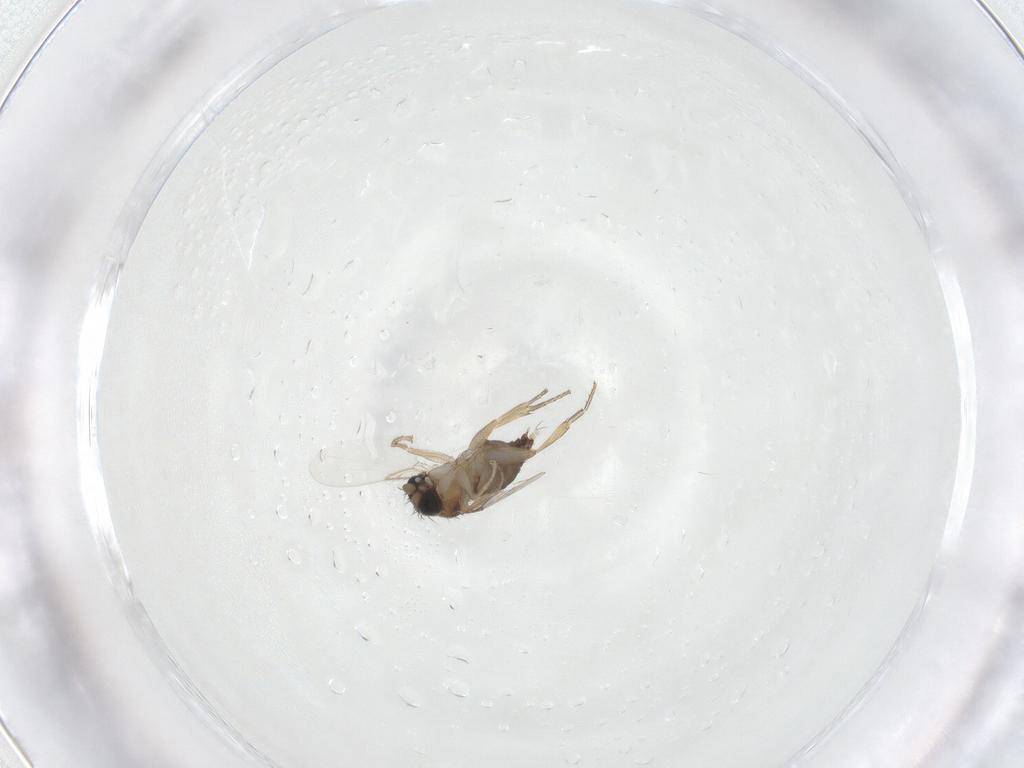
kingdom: Animalia
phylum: Arthropoda
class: Insecta
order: Diptera
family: Phoridae
